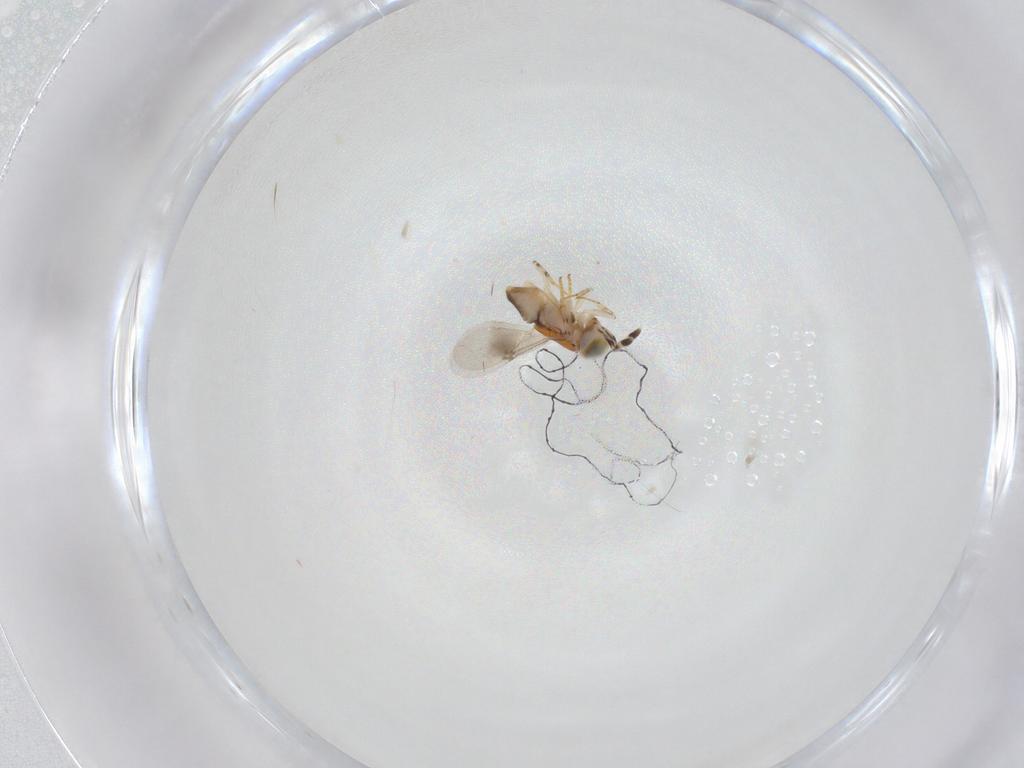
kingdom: Animalia
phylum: Arthropoda
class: Insecta
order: Hymenoptera
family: Encyrtidae
